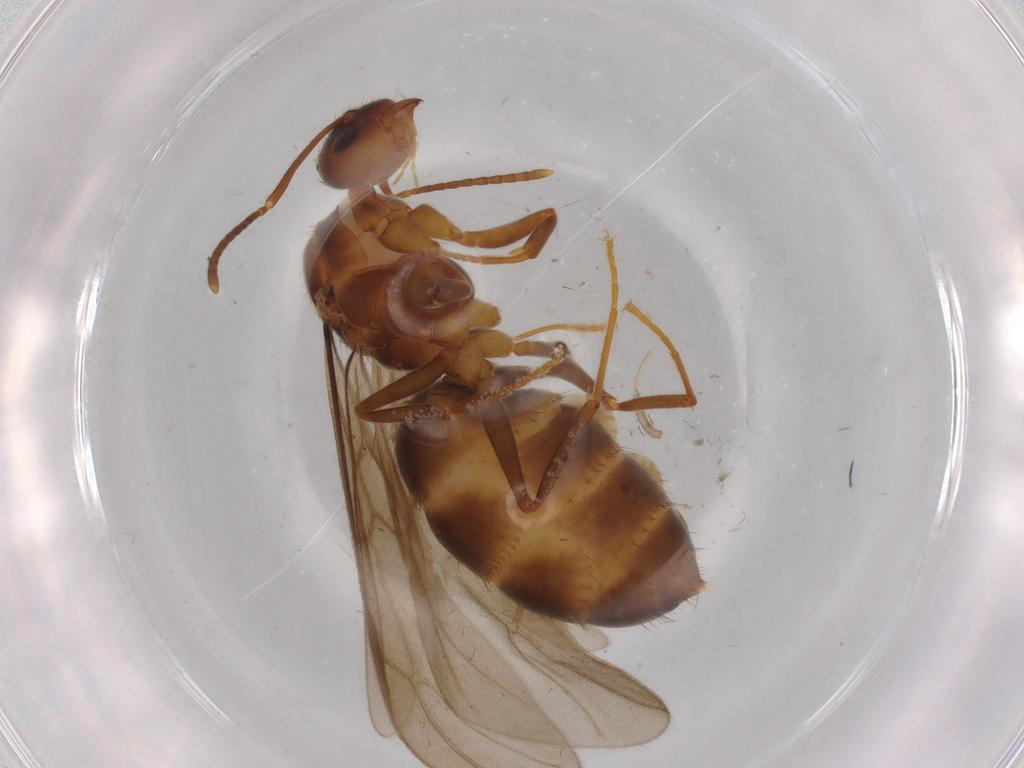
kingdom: Animalia
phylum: Arthropoda
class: Insecta
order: Hymenoptera
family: Formicidae
